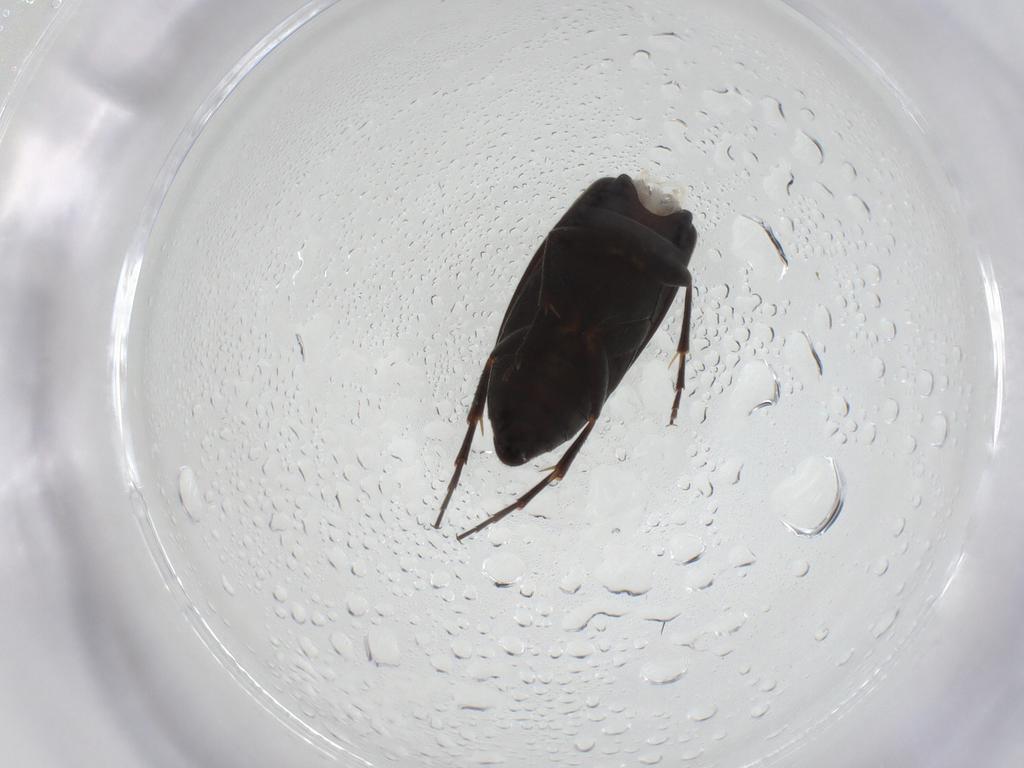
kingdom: Animalia
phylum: Arthropoda
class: Insecta
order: Coleoptera
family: Scraptiidae
